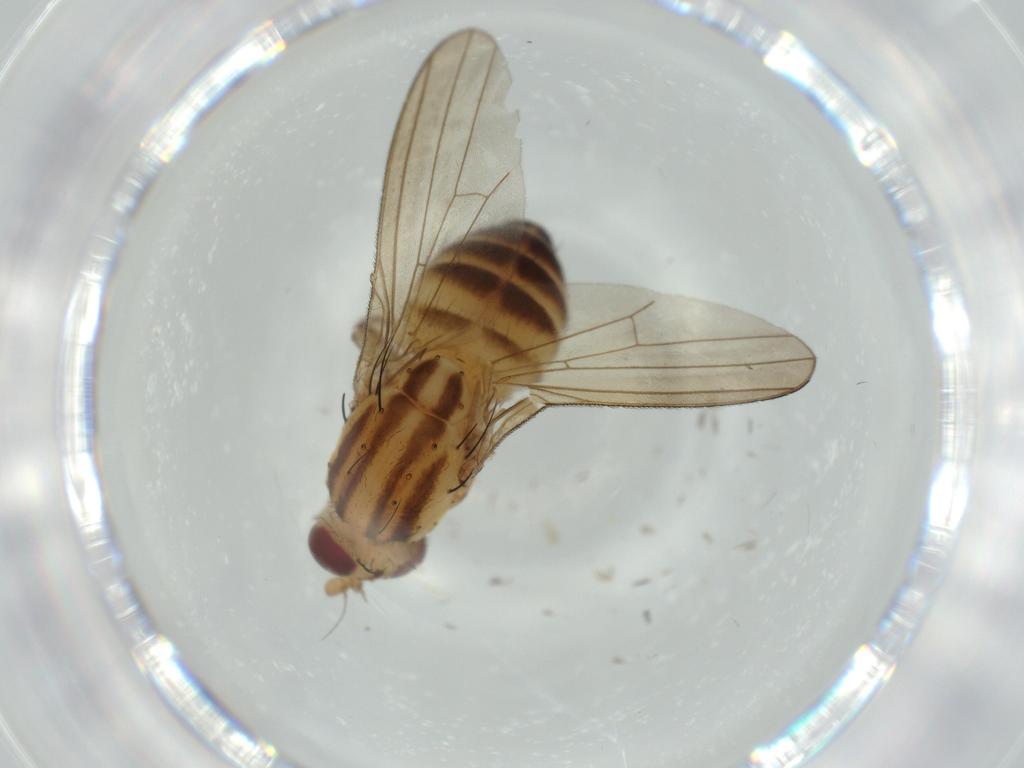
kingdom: Animalia
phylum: Arthropoda
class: Insecta
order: Diptera
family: Lauxaniidae
